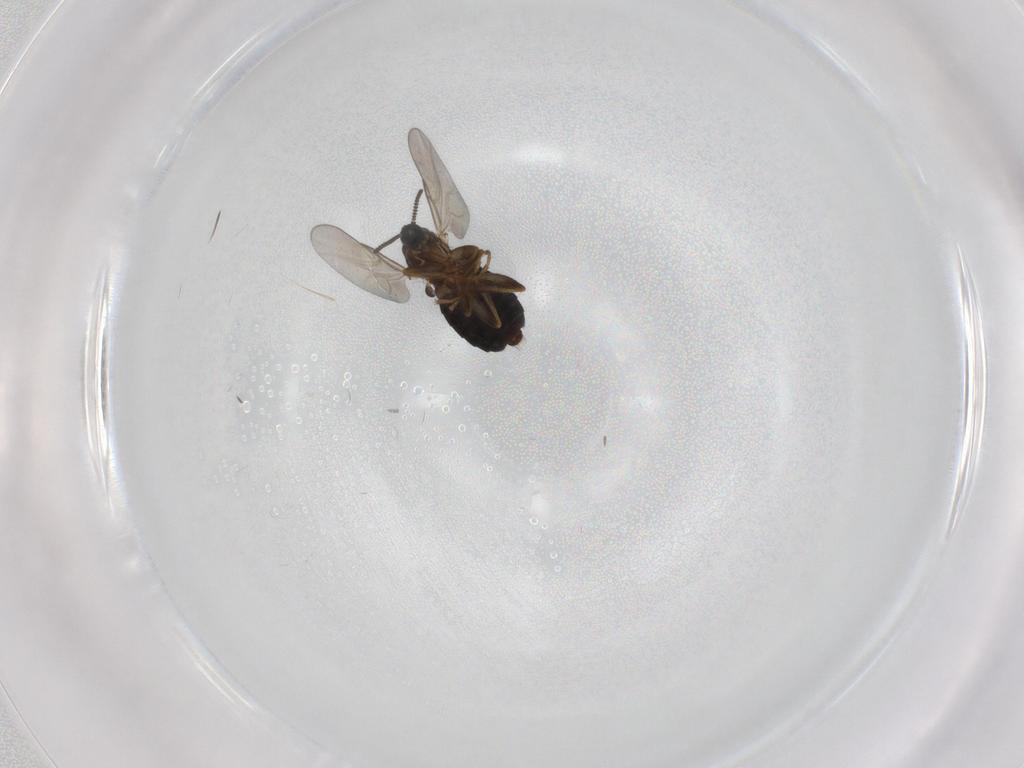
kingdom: Animalia
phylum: Arthropoda
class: Insecta
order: Diptera
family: Scatopsidae
